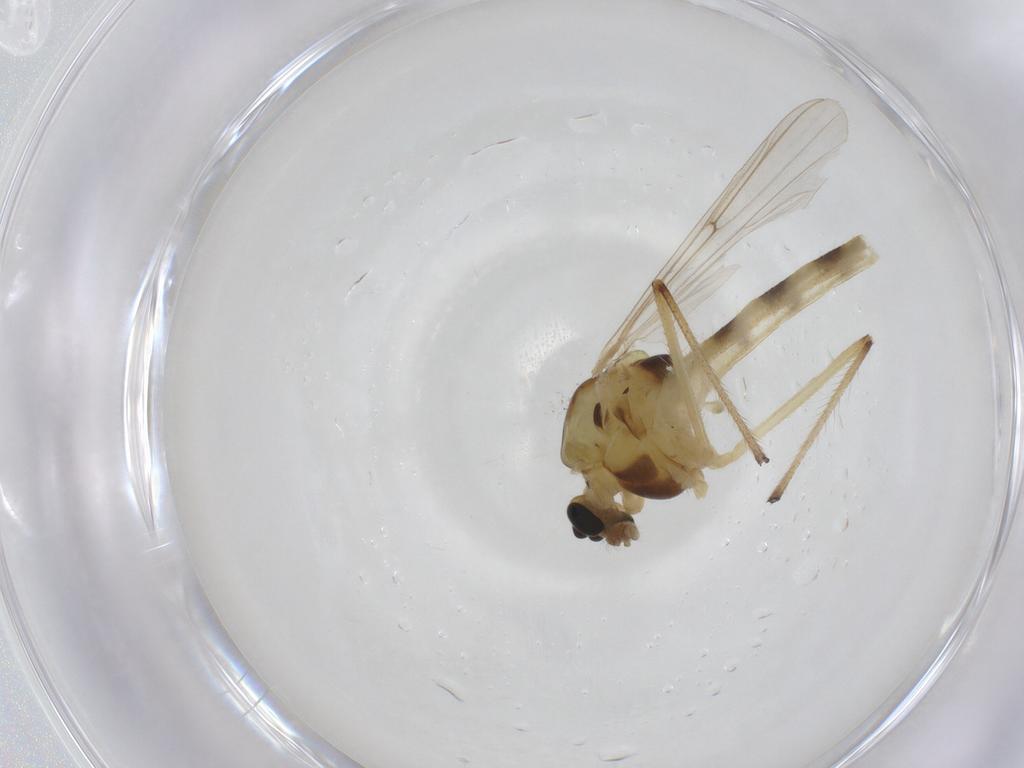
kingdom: Animalia
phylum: Arthropoda
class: Insecta
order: Diptera
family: Chironomidae
